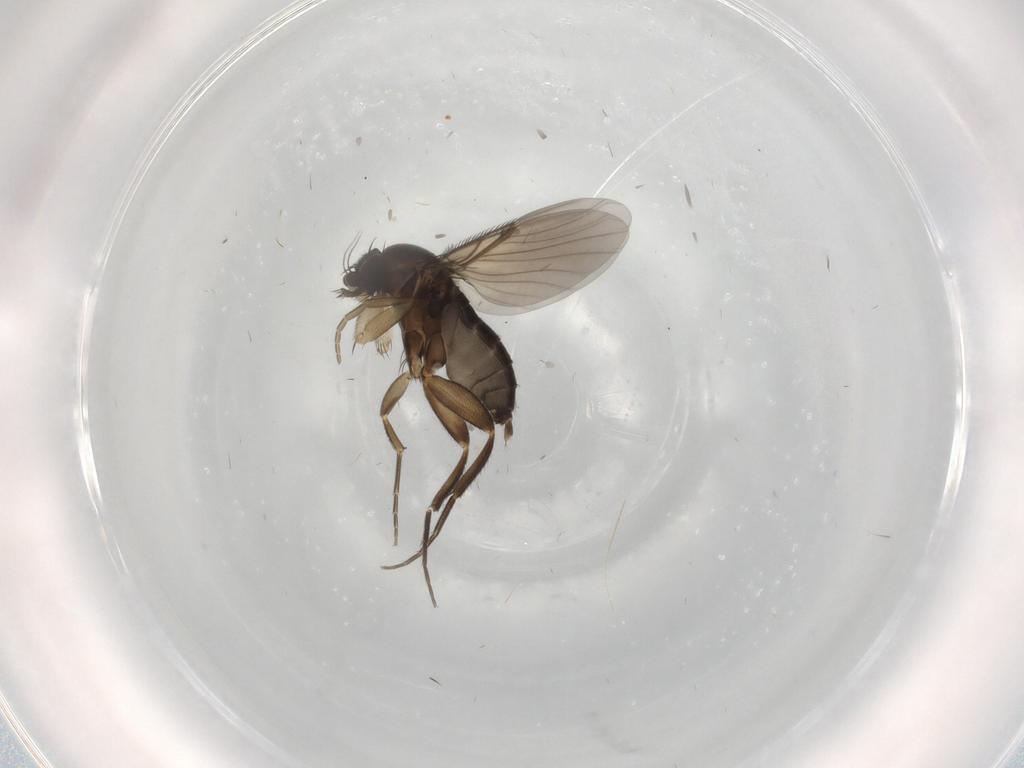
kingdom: Animalia
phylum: Arthropoda
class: Insecta
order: Diptera
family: Phoridae
